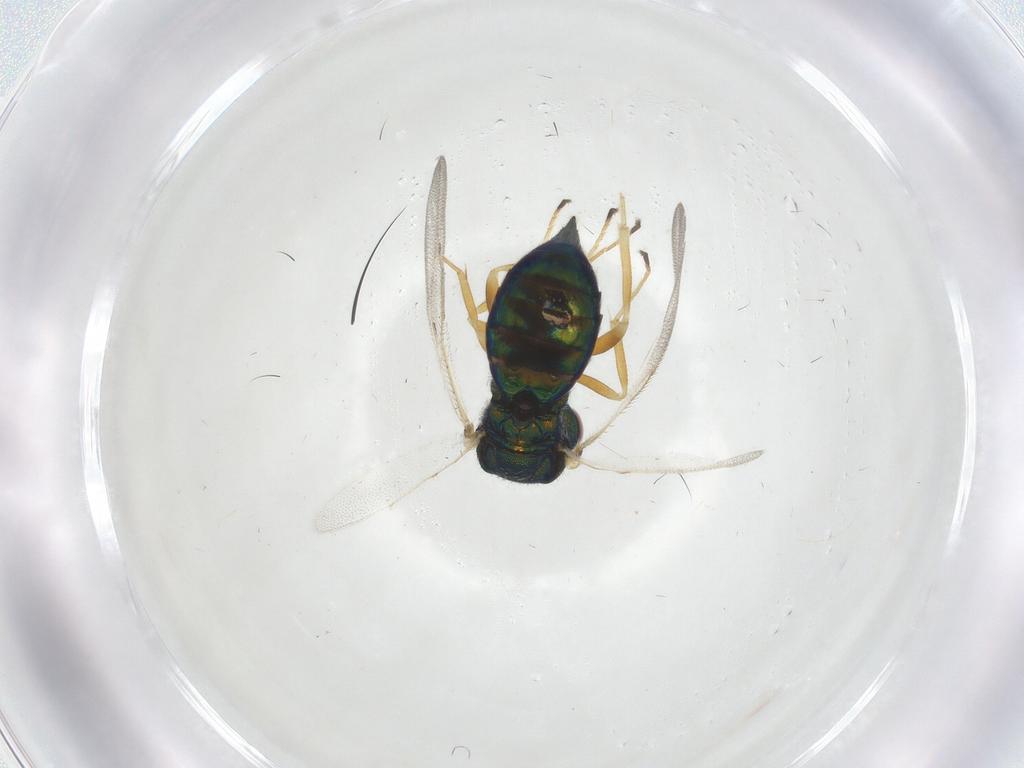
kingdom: Animalia
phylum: Arthropoda
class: Insecta
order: Hymenoptera
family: Pteromalidae
